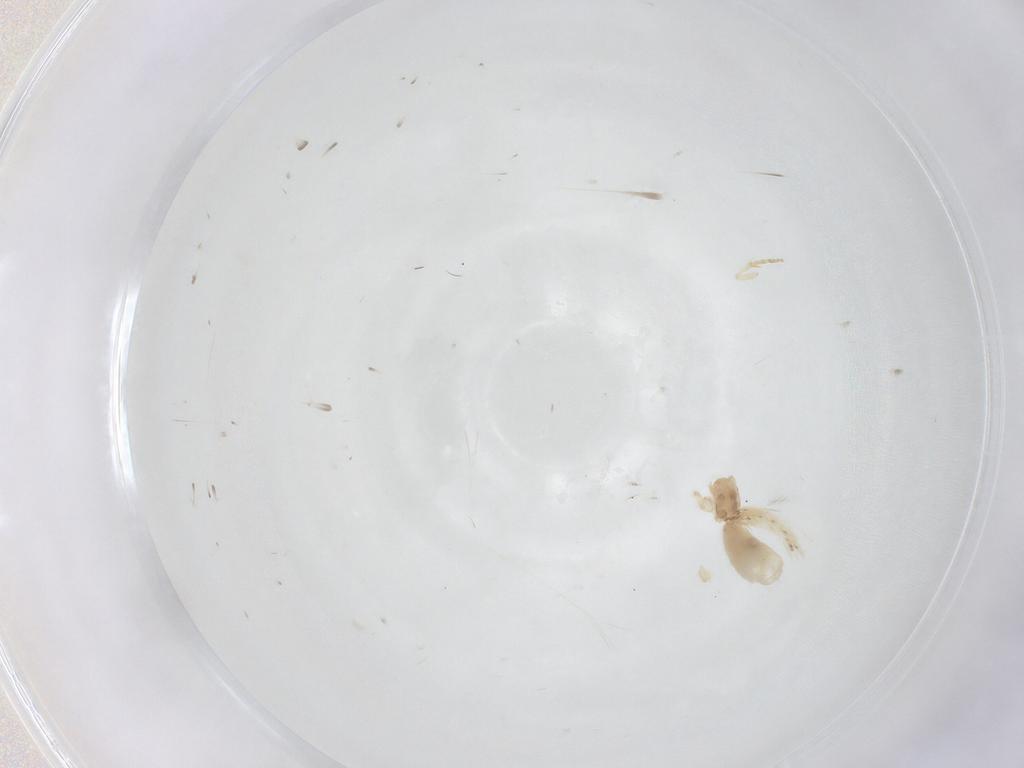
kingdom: Animalia
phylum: Arthropoda
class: Insecta
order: Lepidoptera
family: Crambidae
